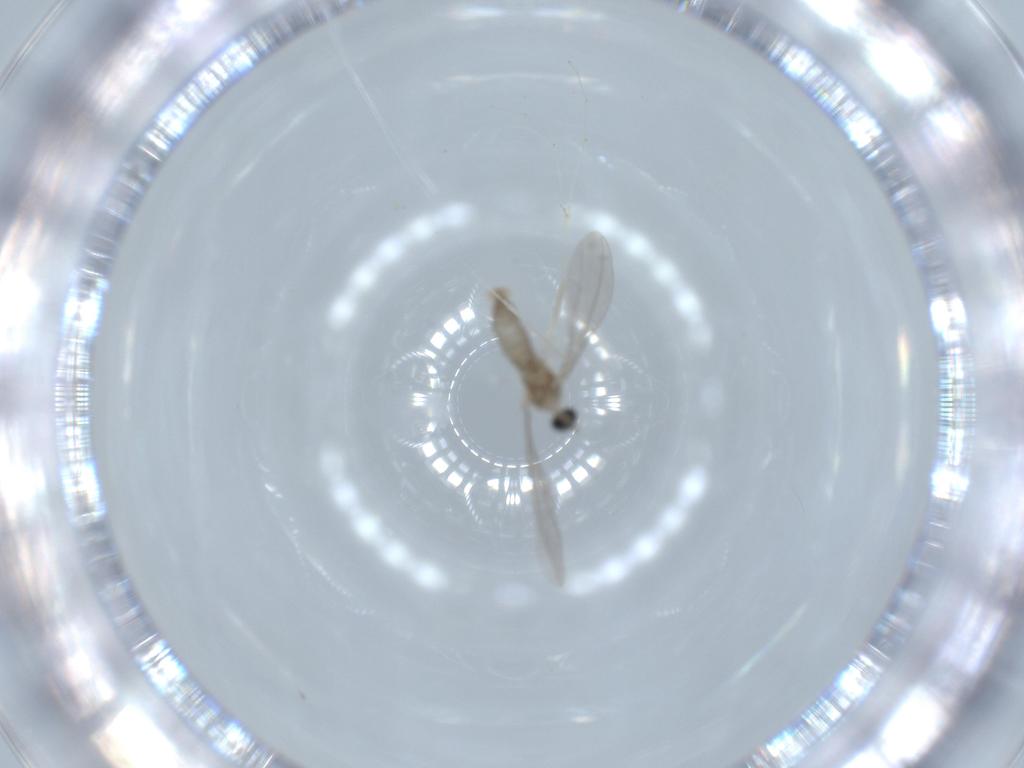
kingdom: Animalia
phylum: Arthropoda
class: Insecta
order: Diptera
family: Cecidomyiidae
